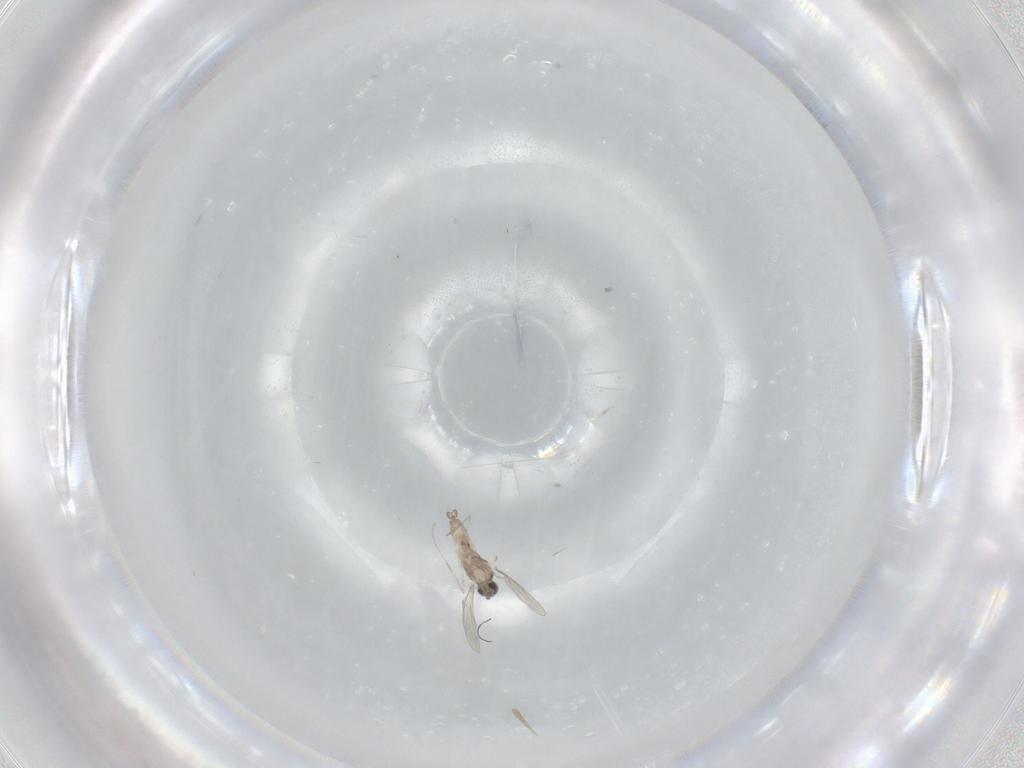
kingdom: Animalia
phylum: Arthropoda
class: Insecta
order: Diptera
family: Cecidomyiidae
